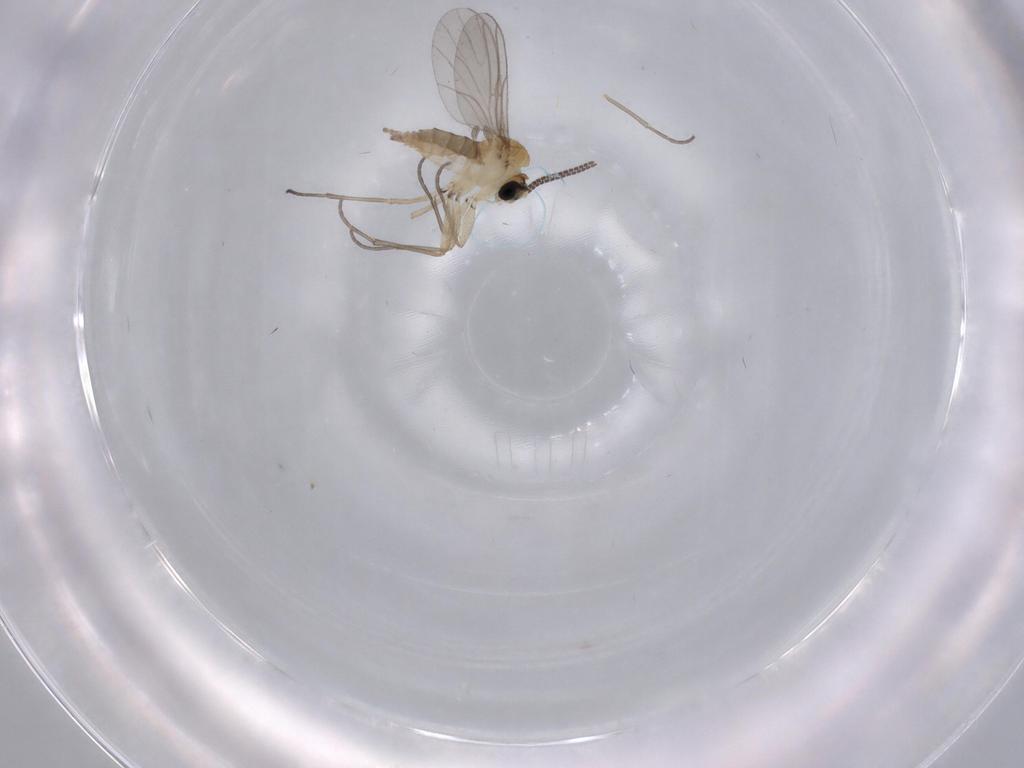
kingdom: Animalia
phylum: Arthropoda
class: Insecta
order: Diptera
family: Sciaridae
